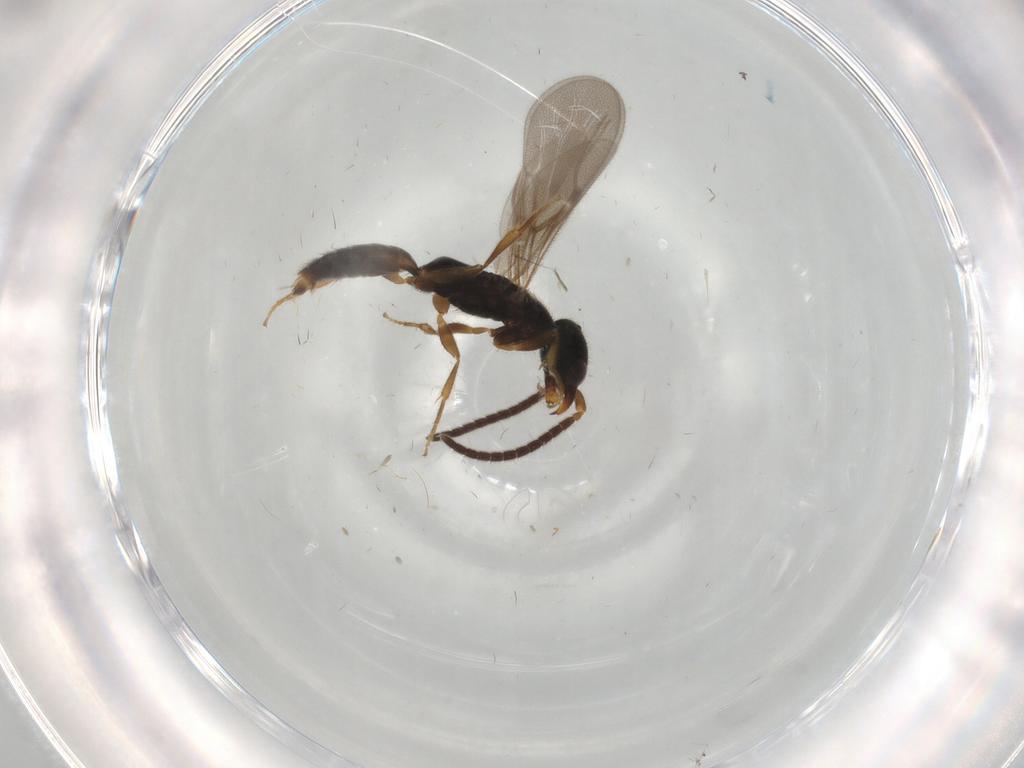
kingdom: Animalia
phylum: Arthropoda
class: Insecta
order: Hymenoptera
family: Bethylidae
